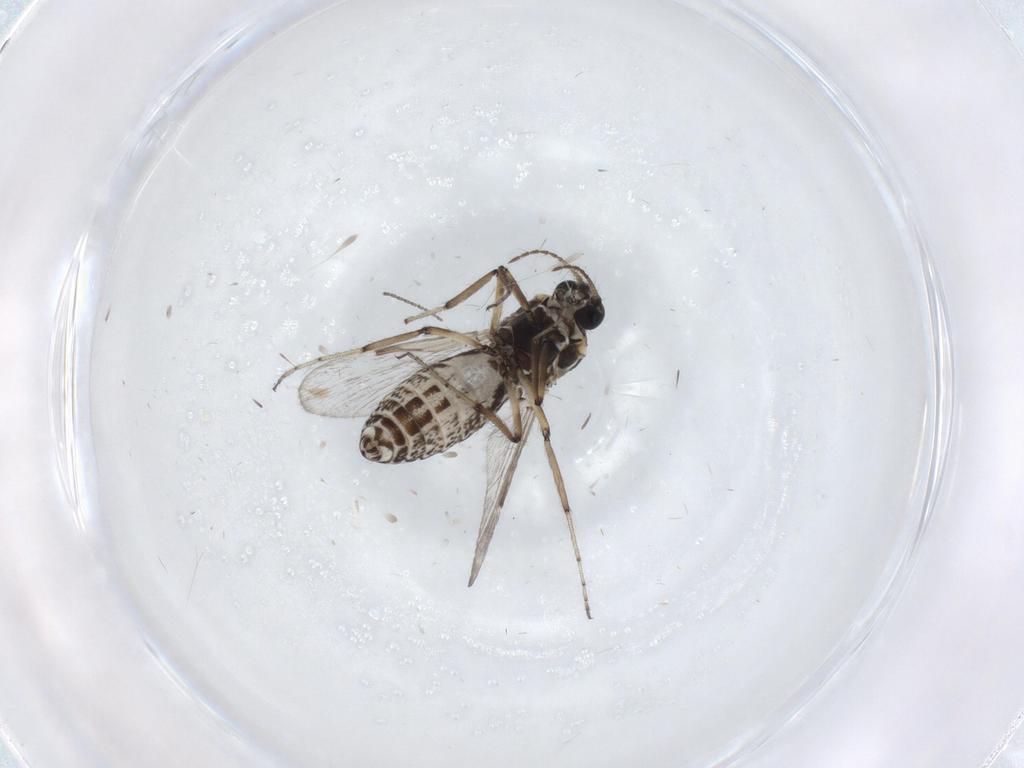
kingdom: Animalia
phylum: Arthropoda
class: Insecta
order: Diptera
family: Ceratopogonidae
